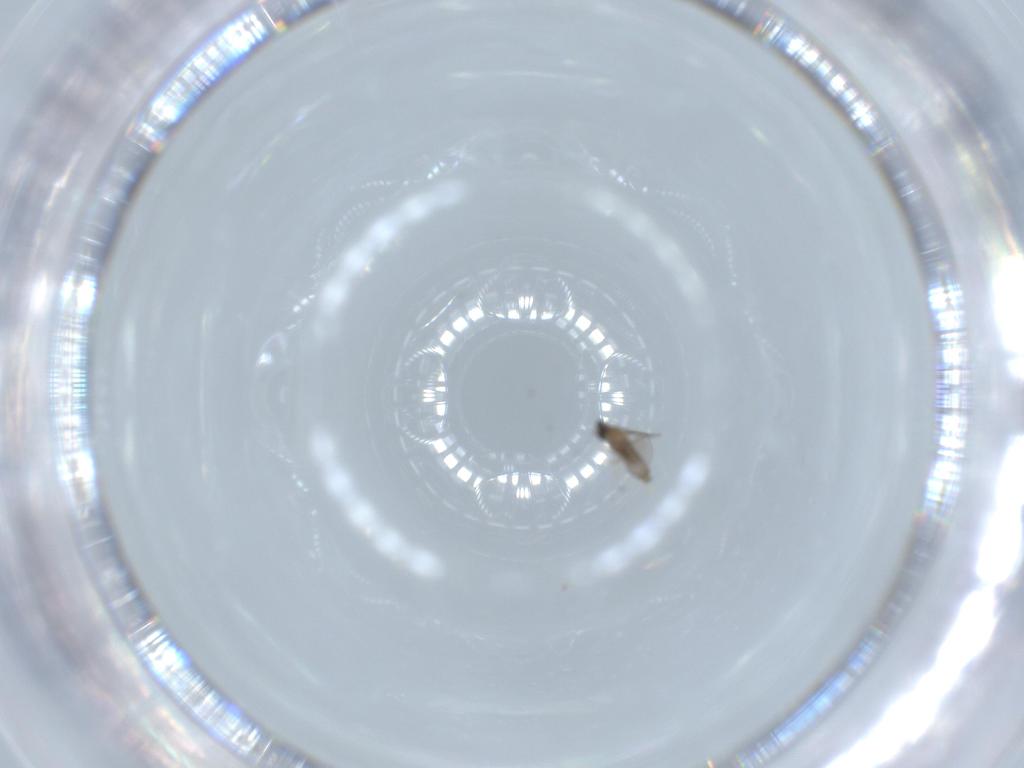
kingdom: Animalia
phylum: Arthropoda
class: Insecta
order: Diptera
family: Cecidomyiidae
